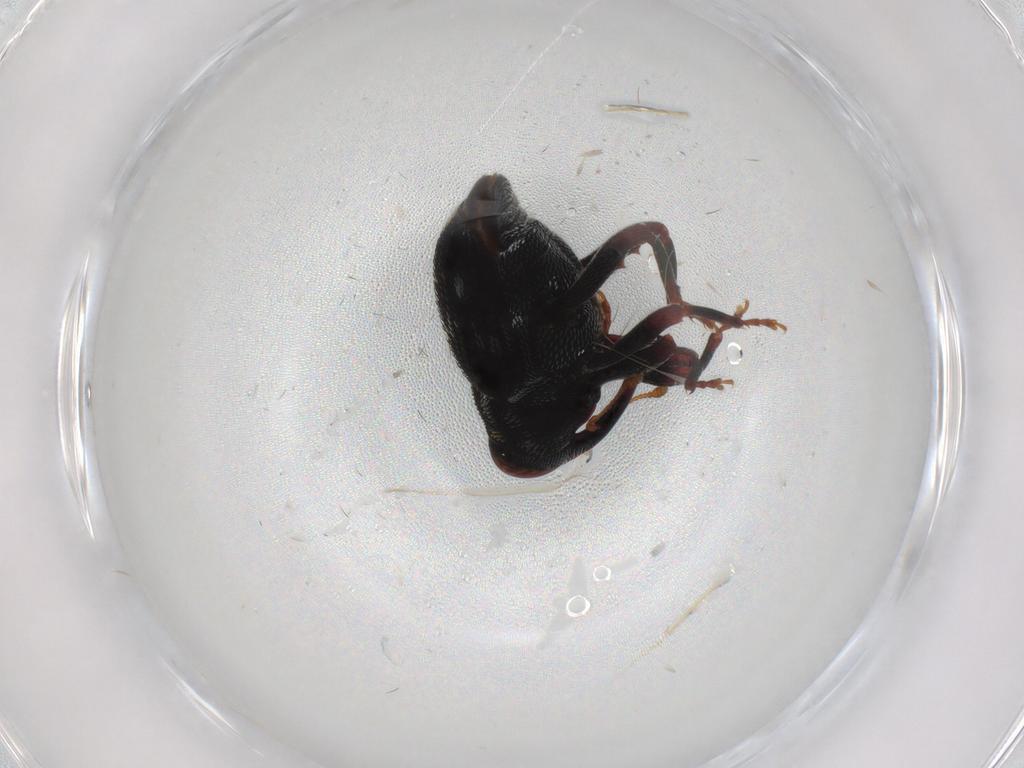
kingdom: Animalia
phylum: Arthropoda
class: Insecta
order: Coleoptera
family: Curculionidae
